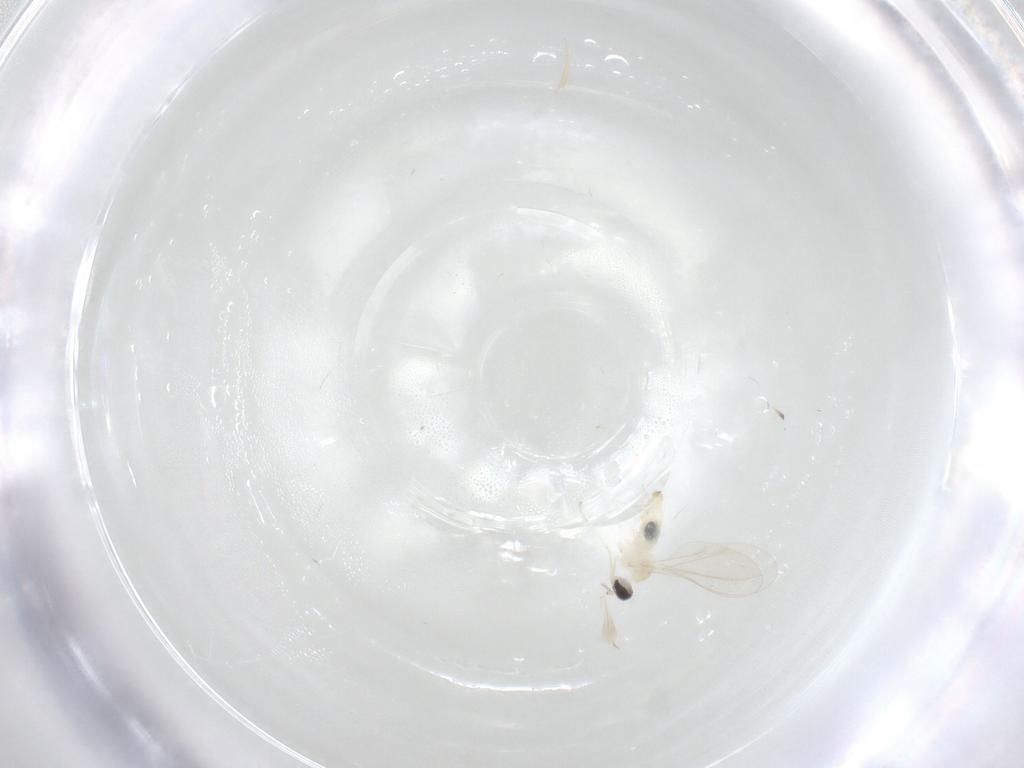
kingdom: Animalia
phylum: Arthropoda
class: Insecta
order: Diptera
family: Cecidomyiidae
